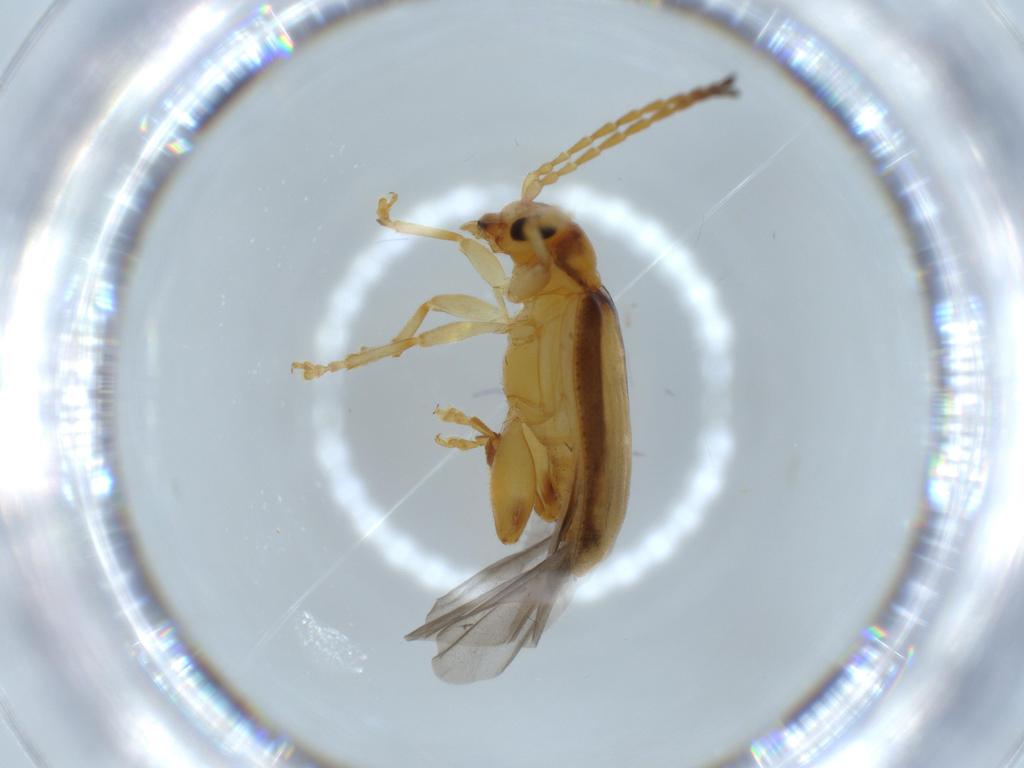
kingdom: Animalia
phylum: Arthropoda
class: Insecta
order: Coleoptera
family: Chrysomelidae
